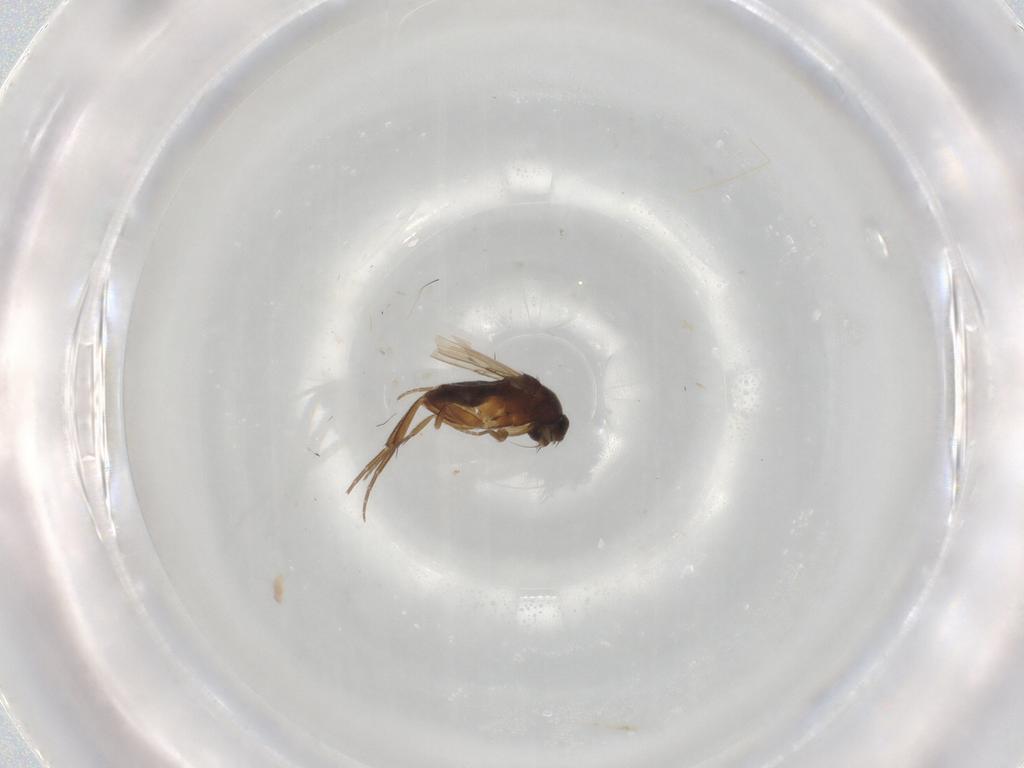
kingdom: Animalia
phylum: Arthropoda
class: Insecta
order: Diptera
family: Phoridae
